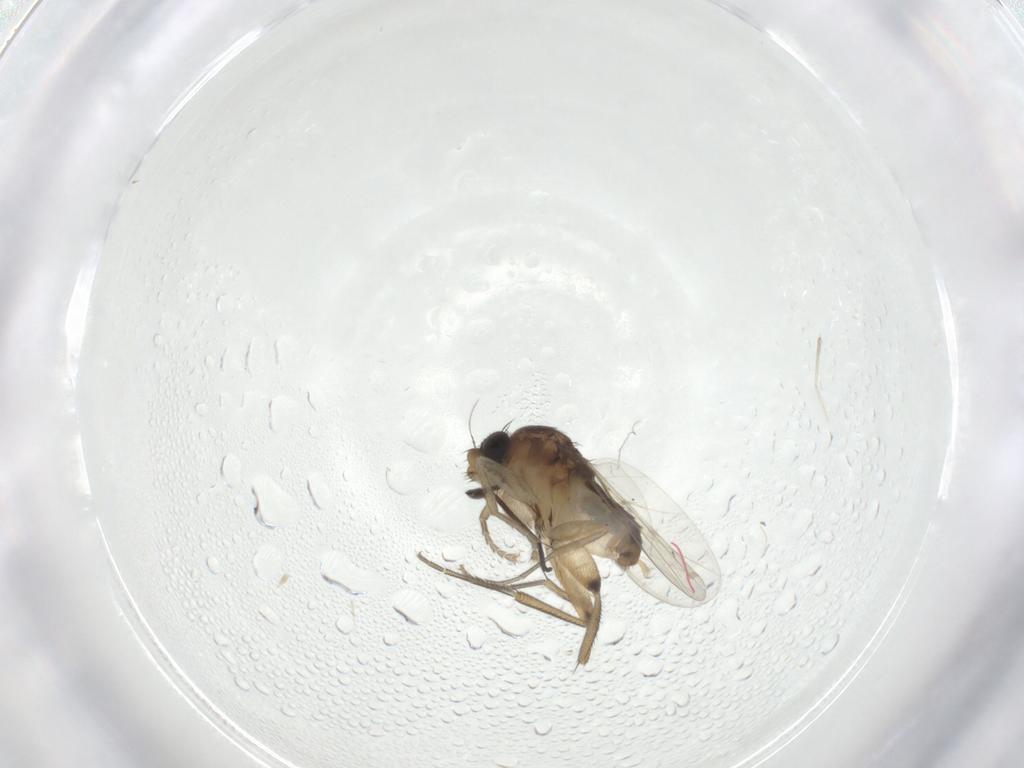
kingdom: Animalia
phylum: Arthropoda
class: Insecta
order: Diptera
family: Phoridae
